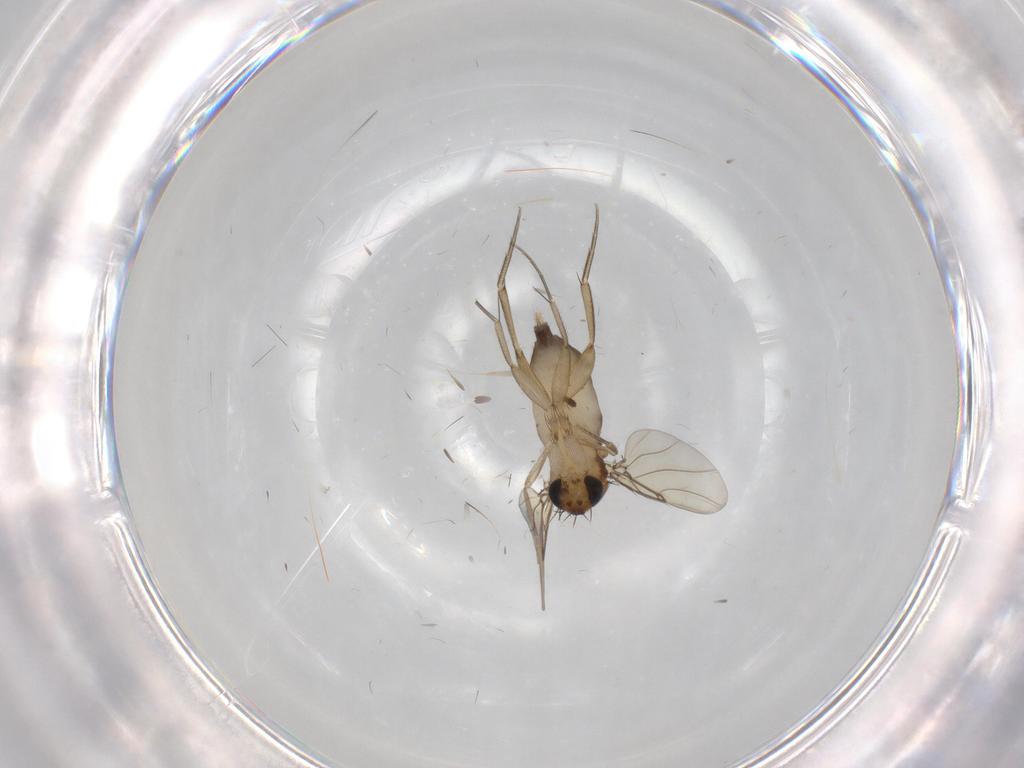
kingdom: Animalia
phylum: Arthropoda
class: Insecta
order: Diptera
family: Phoridae
